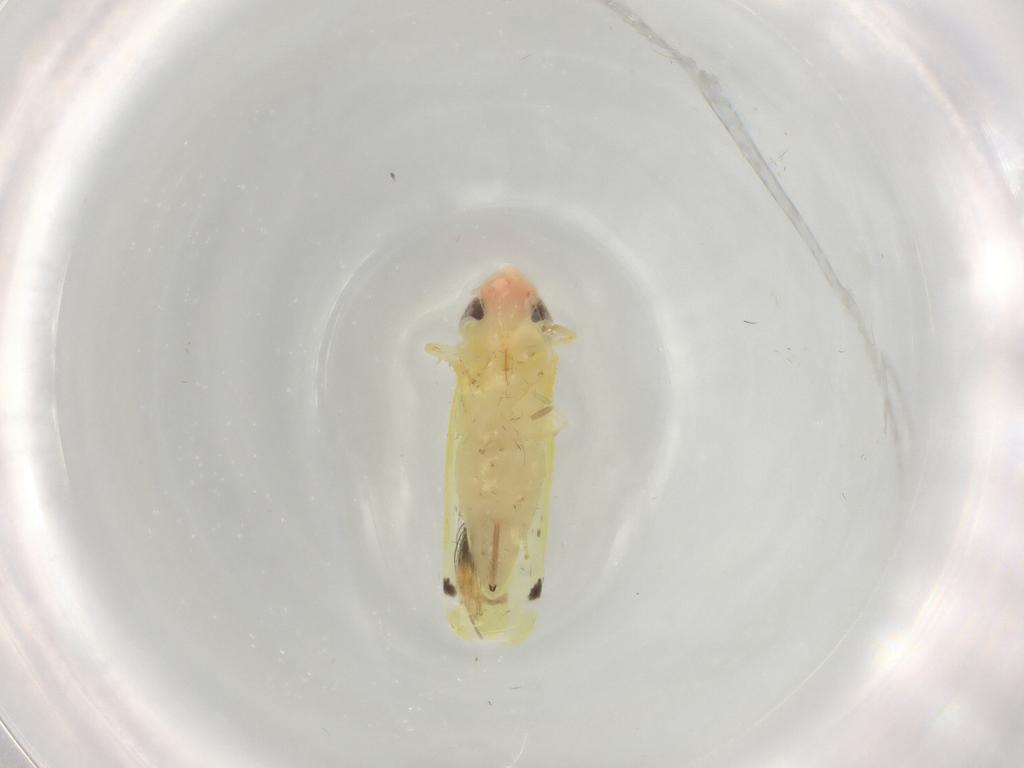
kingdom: Animalia
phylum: Arthropoda
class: Insecta
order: Hemiptera
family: Cicadellidae
